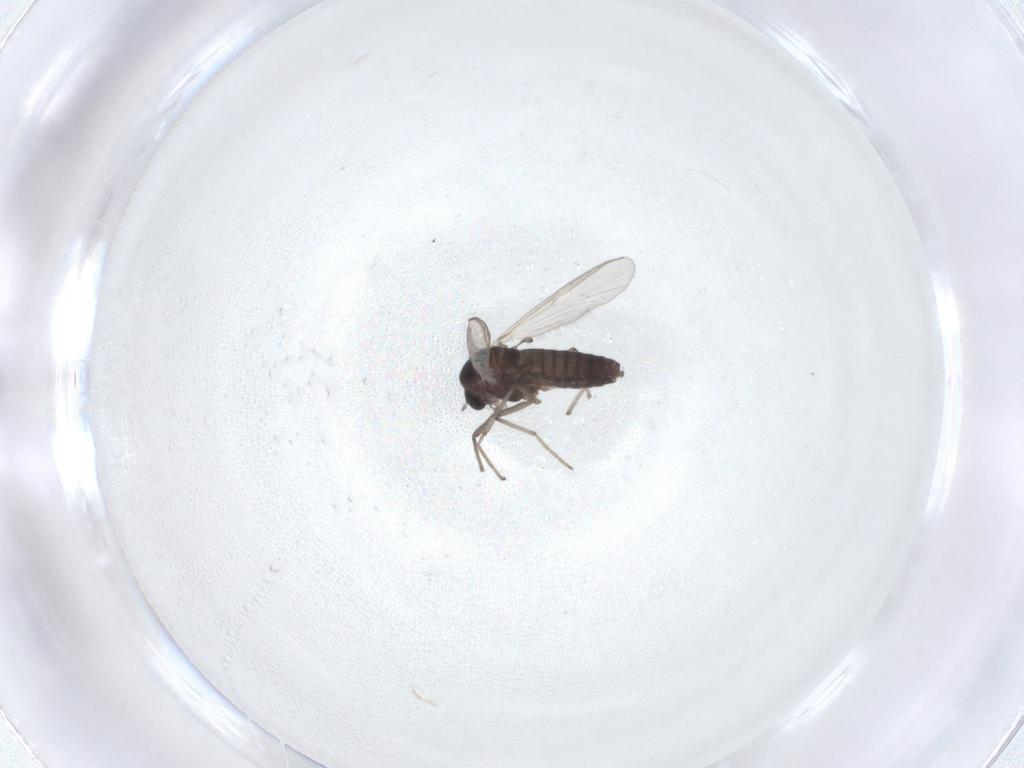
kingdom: Animalia
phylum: Arthropoda
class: Insecta
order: Diptera
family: Chironomidae
